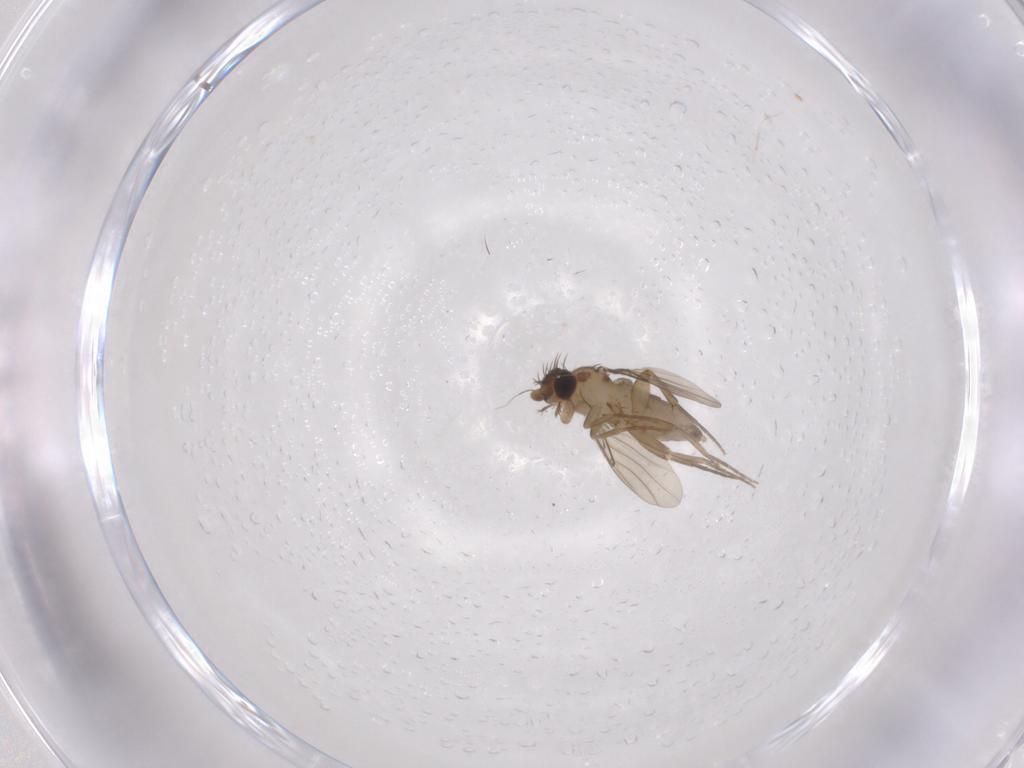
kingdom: Animalia
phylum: Arthropoda
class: Insecta
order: Diptera
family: Phoridae
